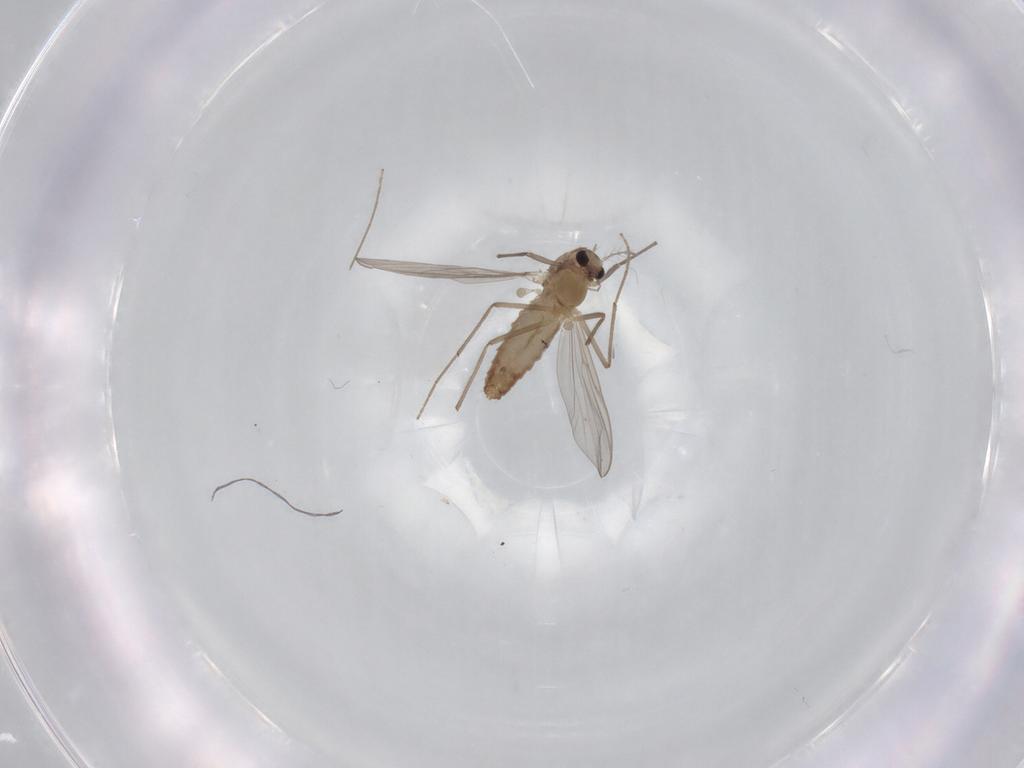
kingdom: Animalia
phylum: Arthropoda
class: Insecta
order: Diptera
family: Chironomidae
